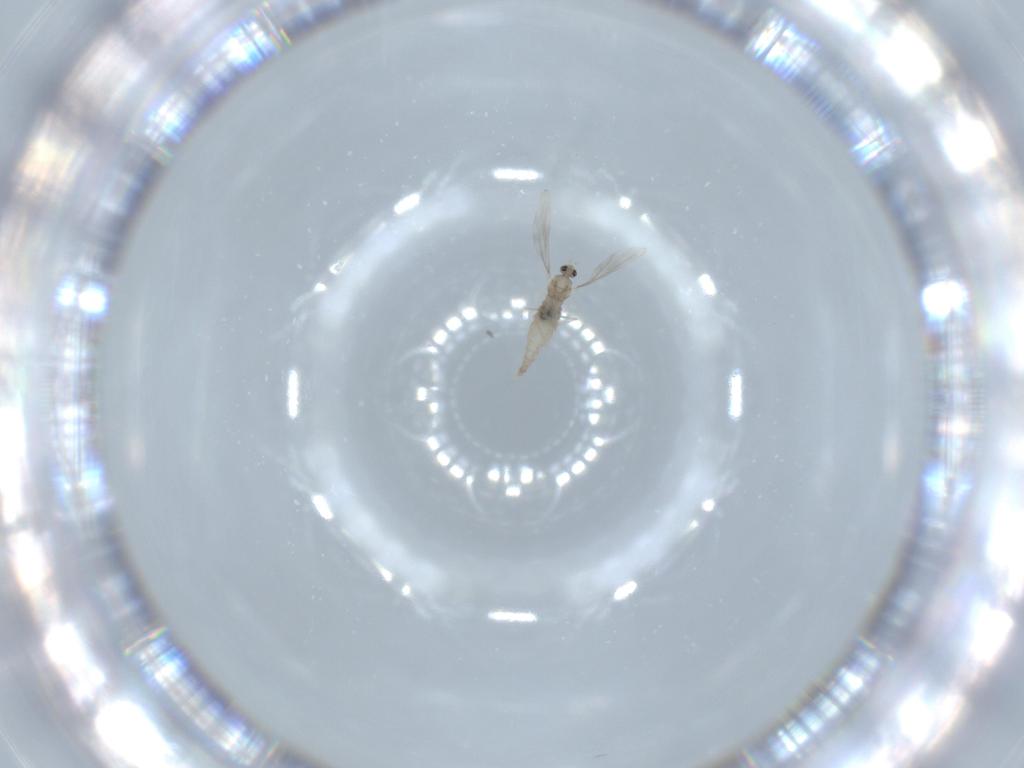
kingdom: Animalia
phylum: Arthropoda
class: Insecta
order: Diptera
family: Cecidomyiidae
